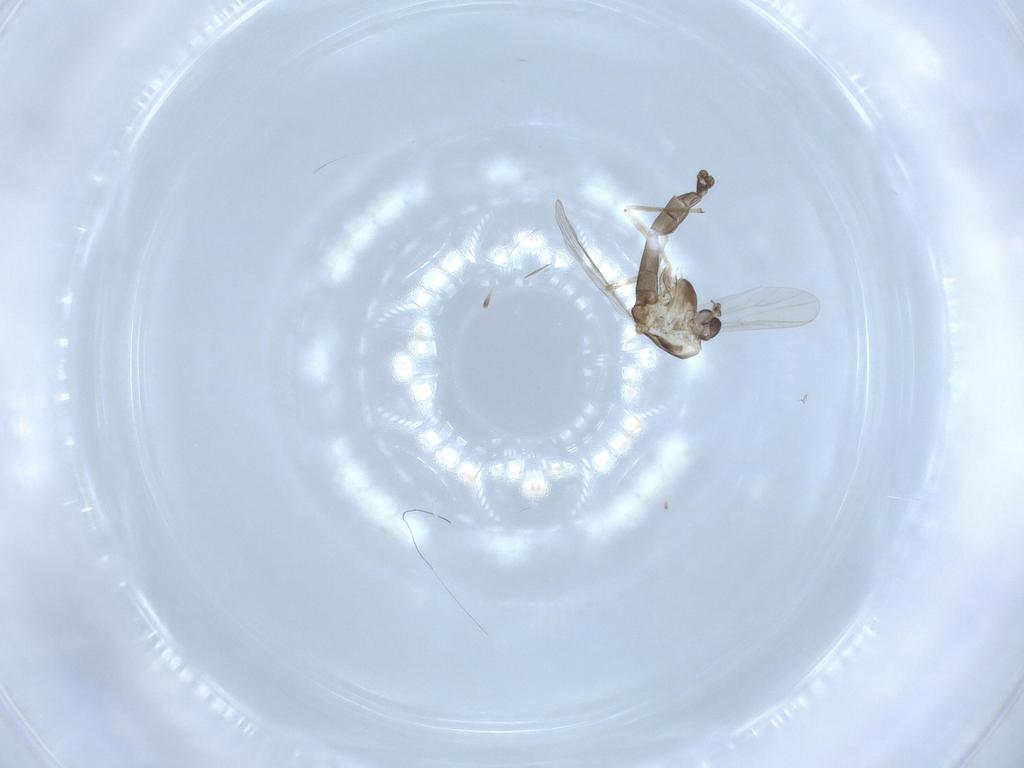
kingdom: Animalia
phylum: Arthropoda
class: Insecta
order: Diptera
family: Chironomidae
